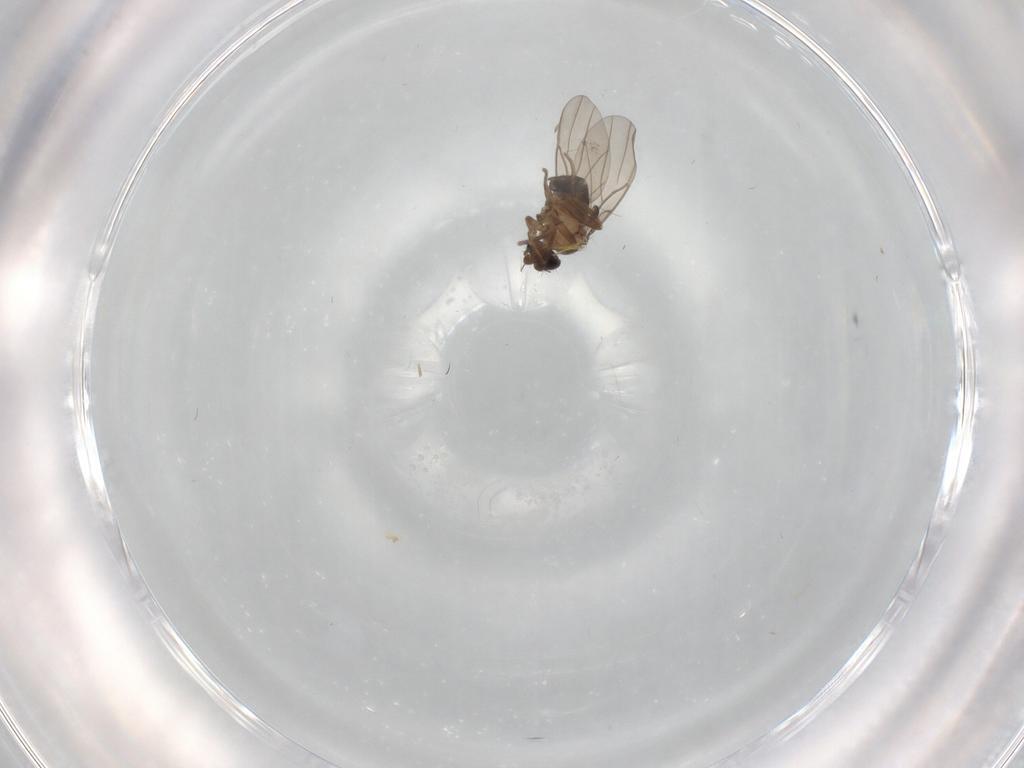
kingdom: Animalia
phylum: Arthropoda
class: Insecta
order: Diptera
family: Phoridae
